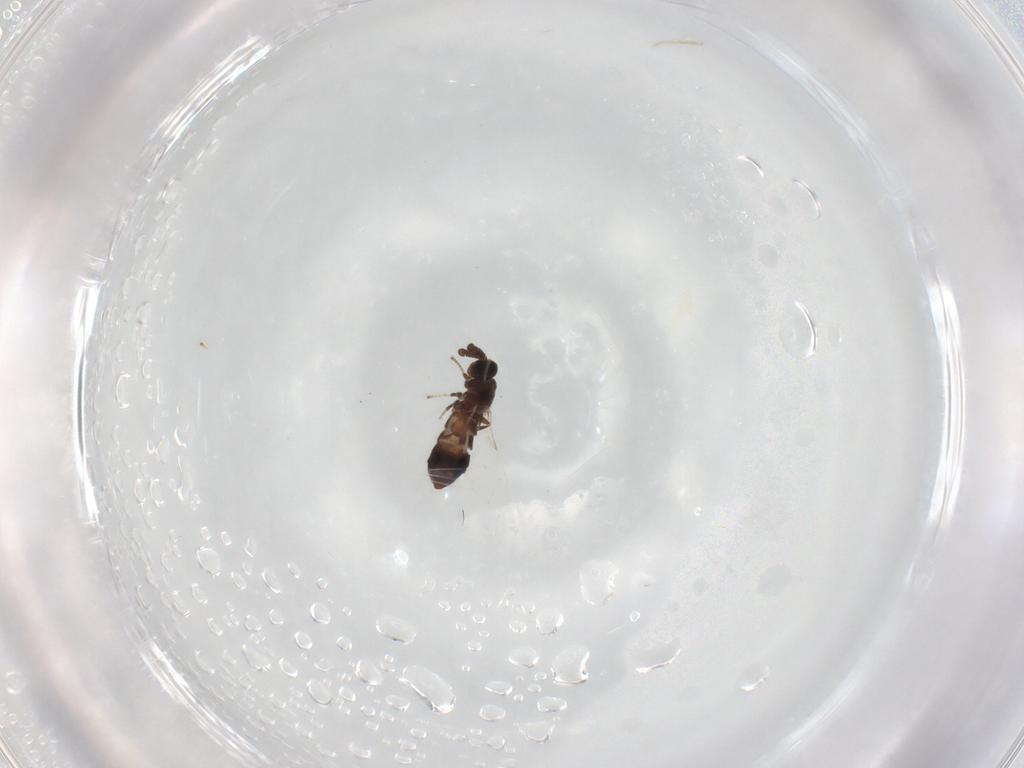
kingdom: Animalia
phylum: Arthropoda
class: Insecta
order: Diptera
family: Scatopsidae
